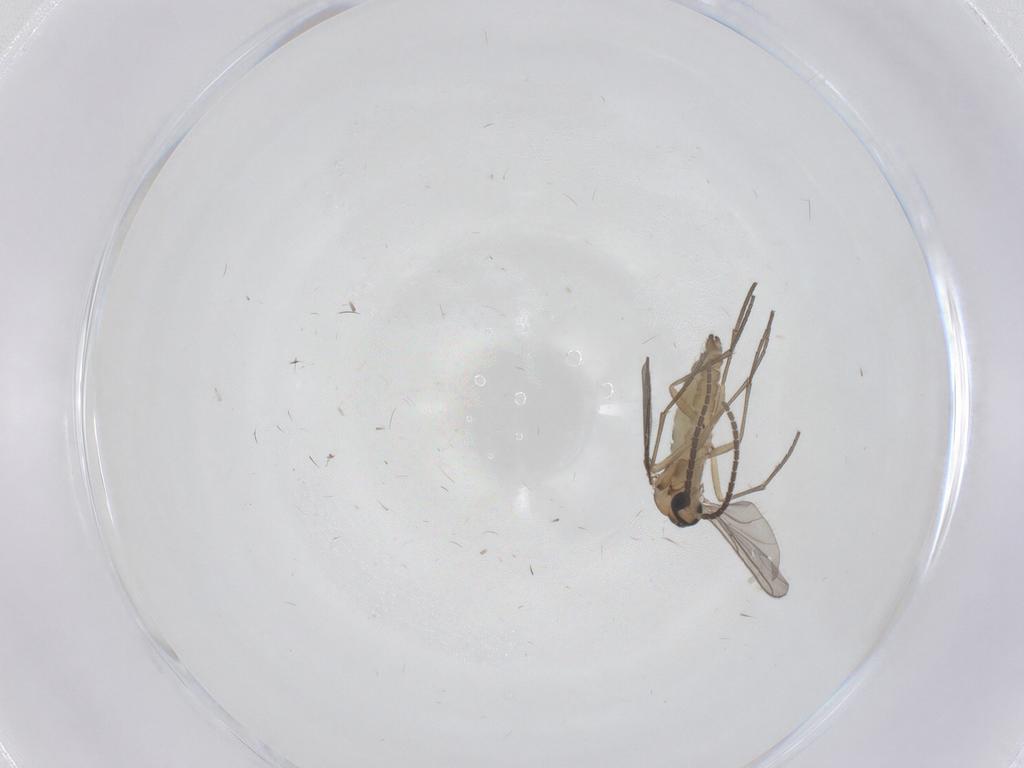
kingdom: Animalia
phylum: Arthropoda
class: Insecta
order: Diptera
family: Sciaridae
